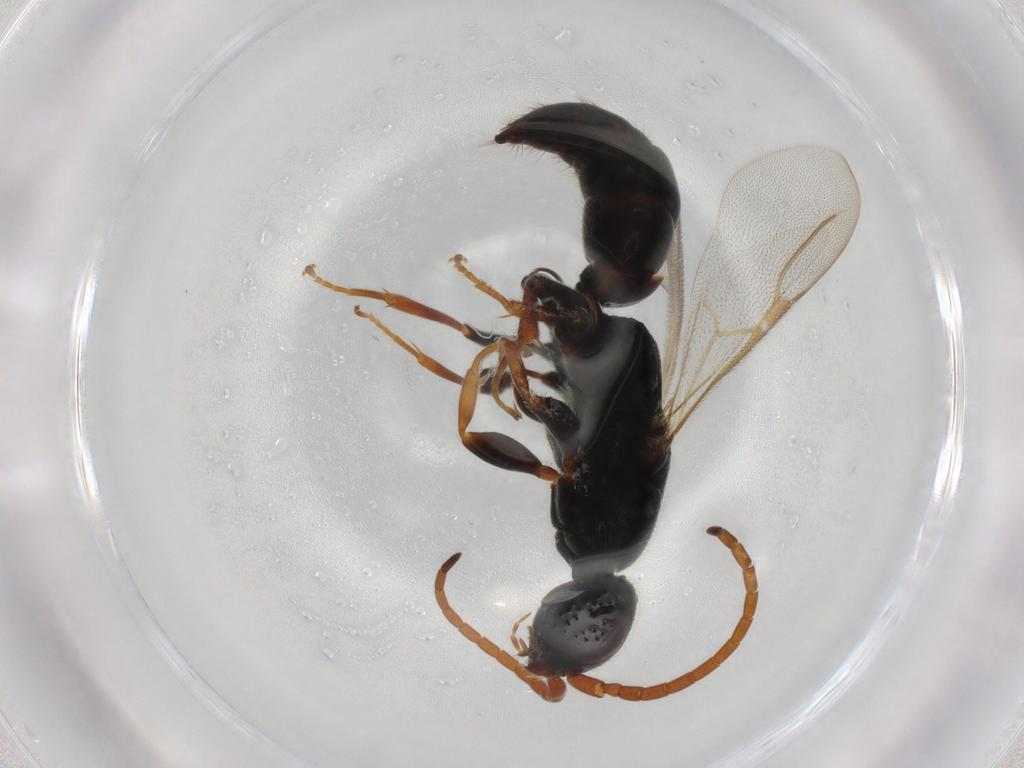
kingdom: Animalia
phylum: Arthropoda
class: Insecta
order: Hymenoptera
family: Bethylidae
